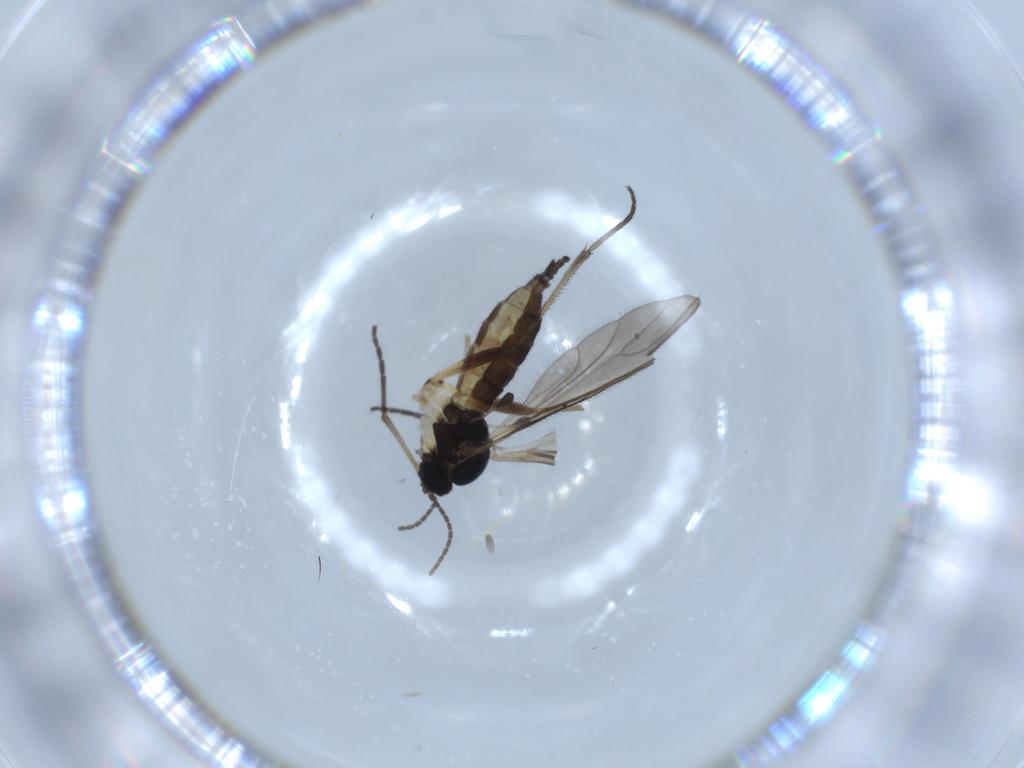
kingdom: Animalia
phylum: Arthropoda
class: Insecta
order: Diptera
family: Sciaridae
